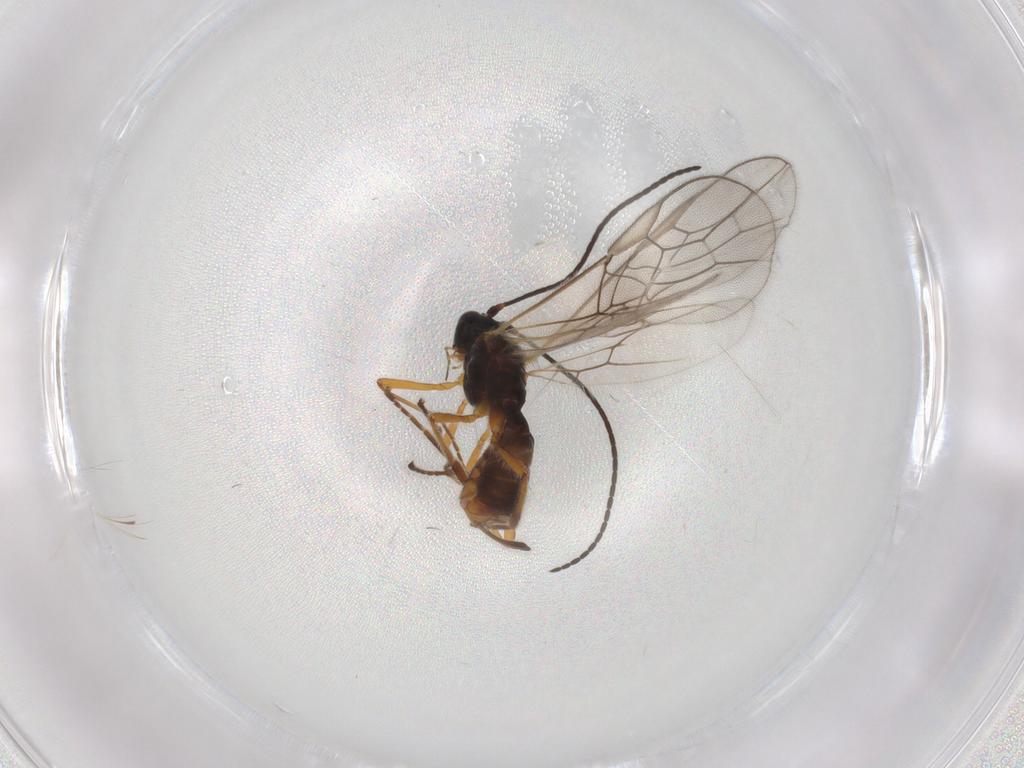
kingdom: Animalia
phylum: Arthropoda
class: Insecta
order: Hymenoptera
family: Braconidae
